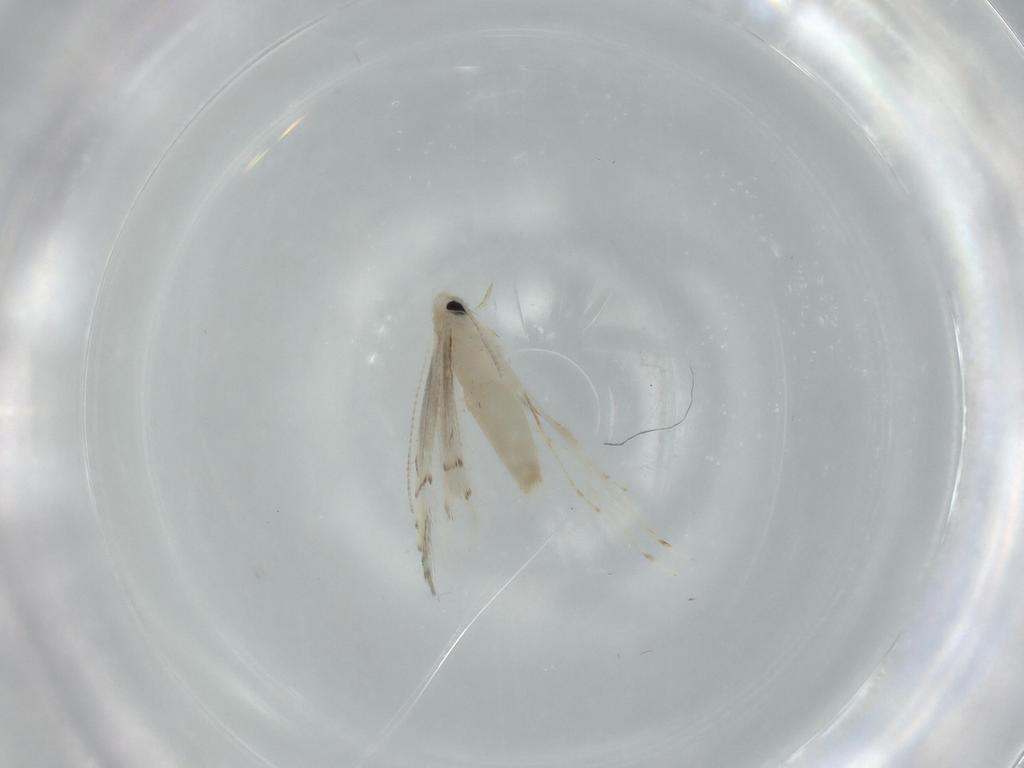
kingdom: Animalia
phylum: Arthropoda
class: Insecta
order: Lepidoptera
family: Gracillariidae
